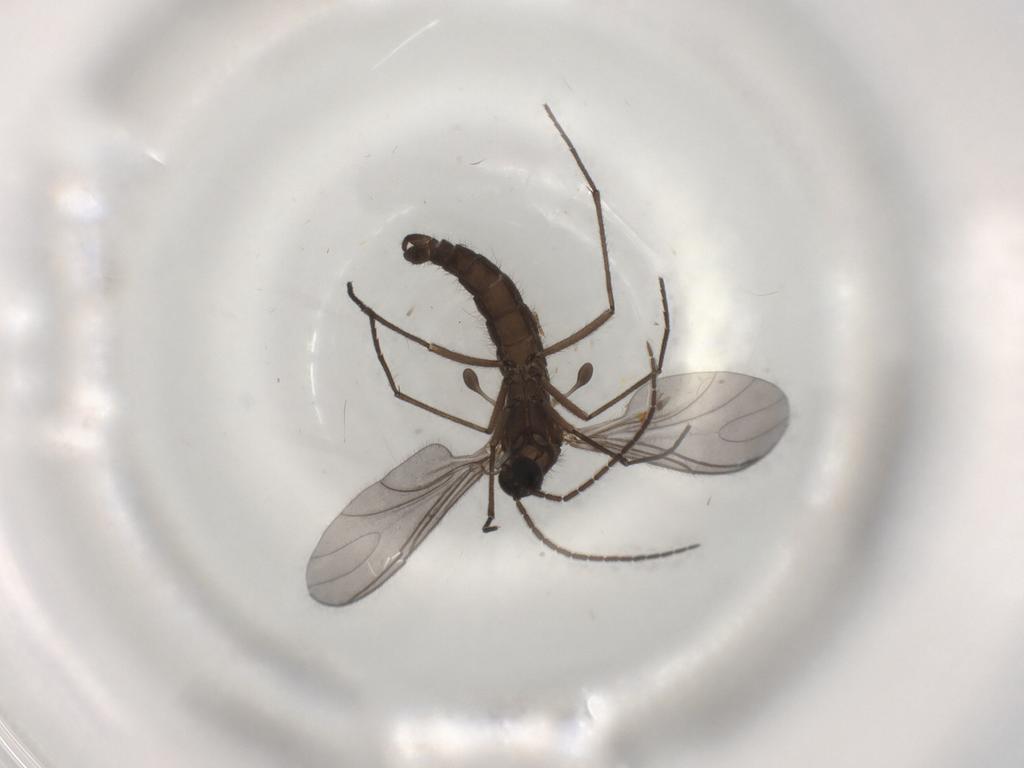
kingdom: Animalia
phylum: Arthropoda
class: Insecta
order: Diptera
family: Sciaridae
